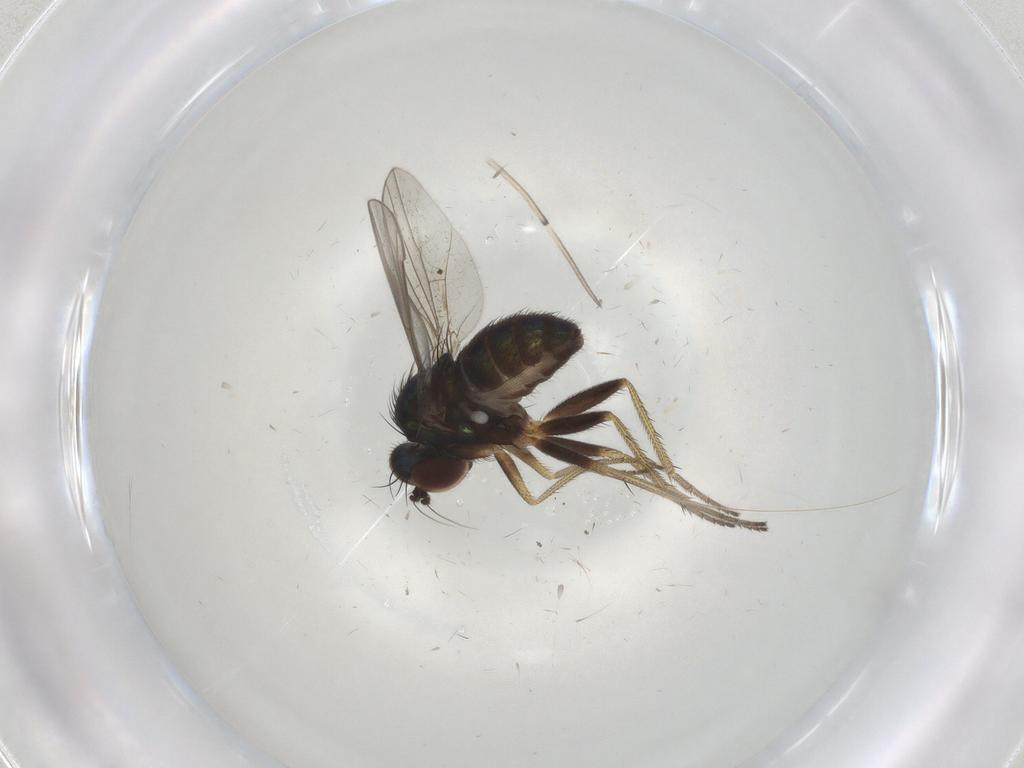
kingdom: Animalia
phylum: Arthropoda
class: Insecta
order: Diptera
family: Dolichopodidae
